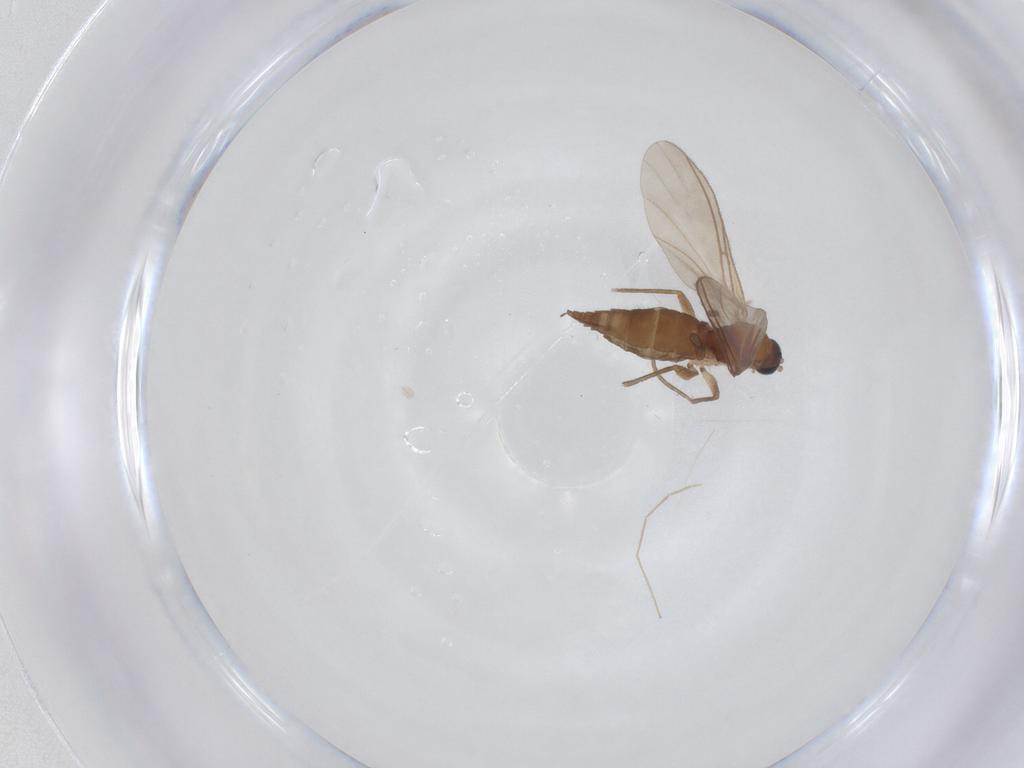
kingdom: Animalia
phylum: Arthropoda
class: Insecta
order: Diptera
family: Sciaridae
